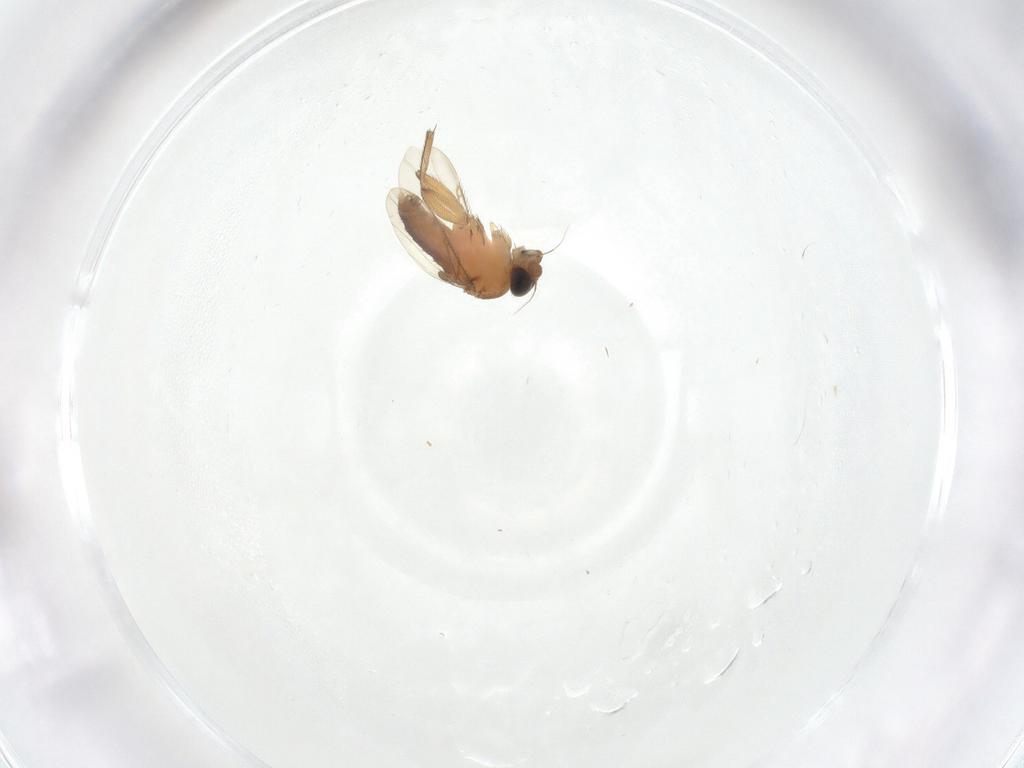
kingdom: Animalia
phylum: Arthropoda
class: Insecta
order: Diptera
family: Phoridae
